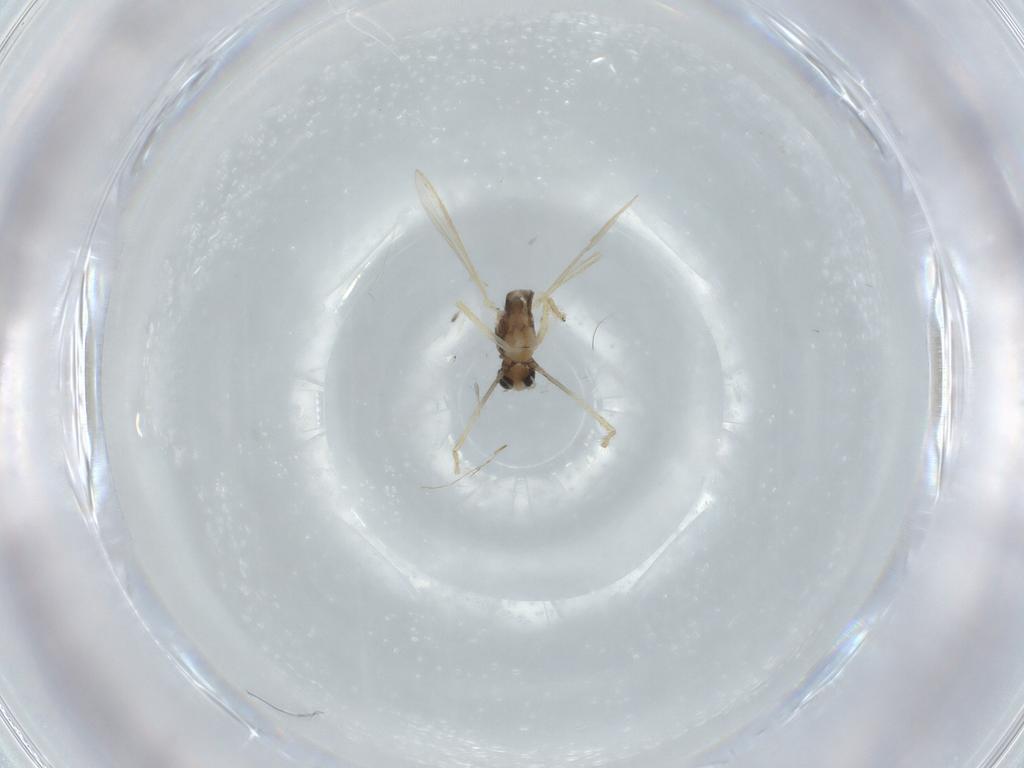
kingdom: Animalia
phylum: Arthropoda
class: Insecta
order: Diptera
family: Chironomidae
